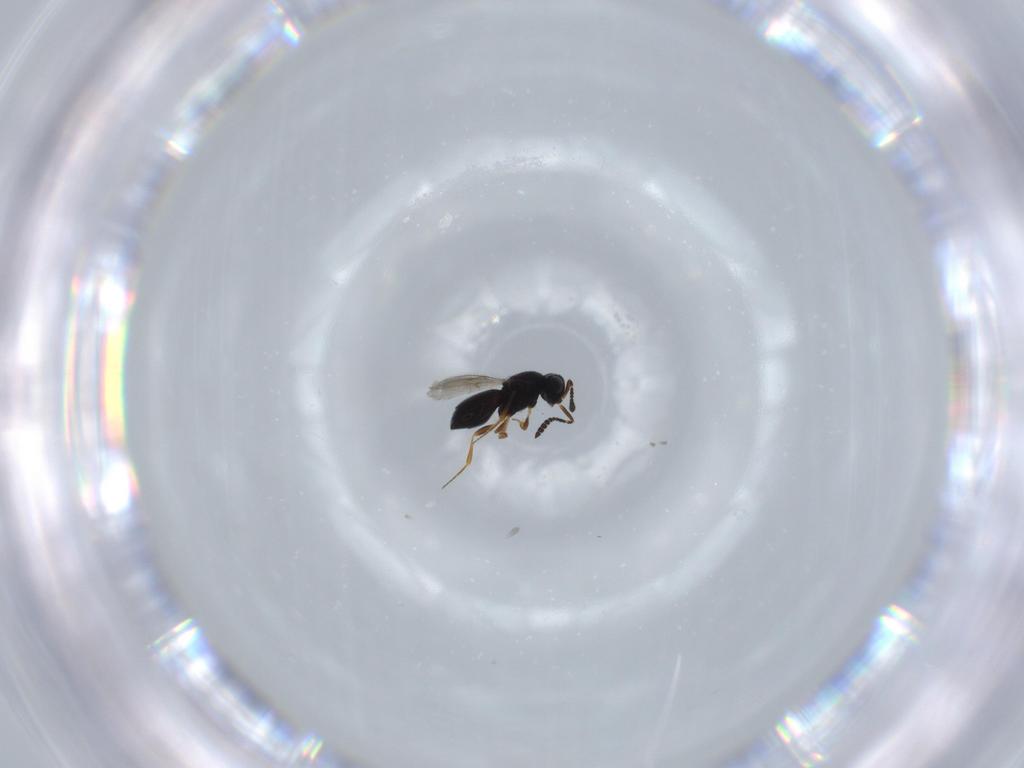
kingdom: Animalia
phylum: Arthropoda
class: Insecta
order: Hymenoptera
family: Scelionidae
